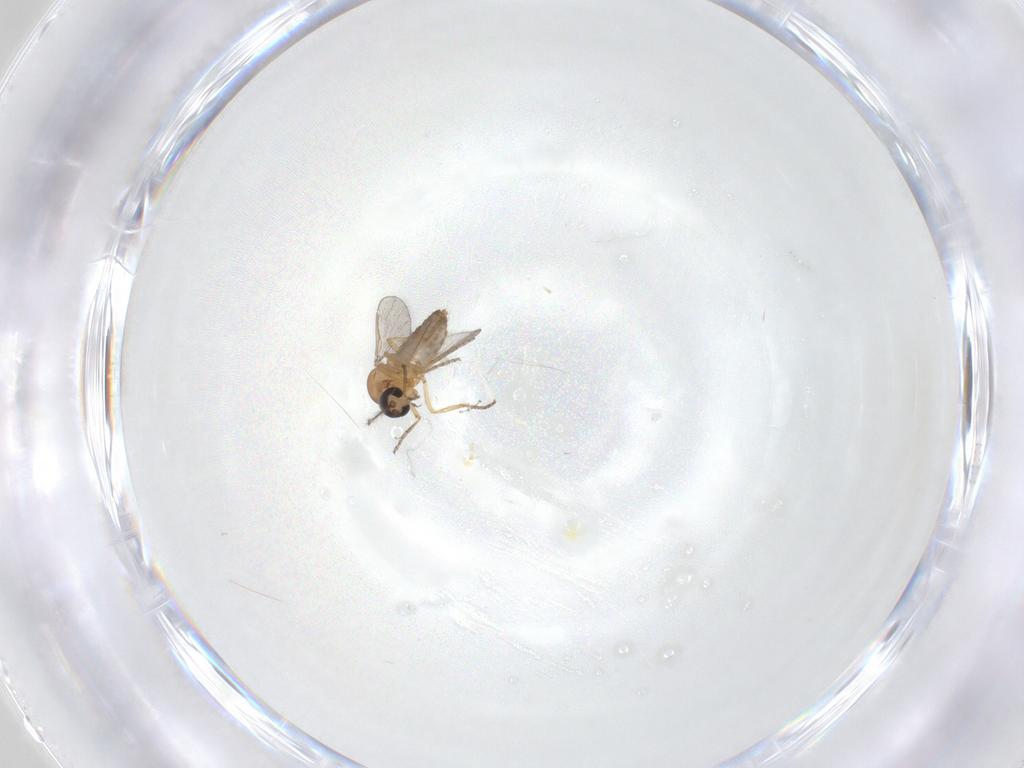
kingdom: Animalia
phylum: Arthropoda
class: Insecta
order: Diptera
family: Ceratopogonidae
